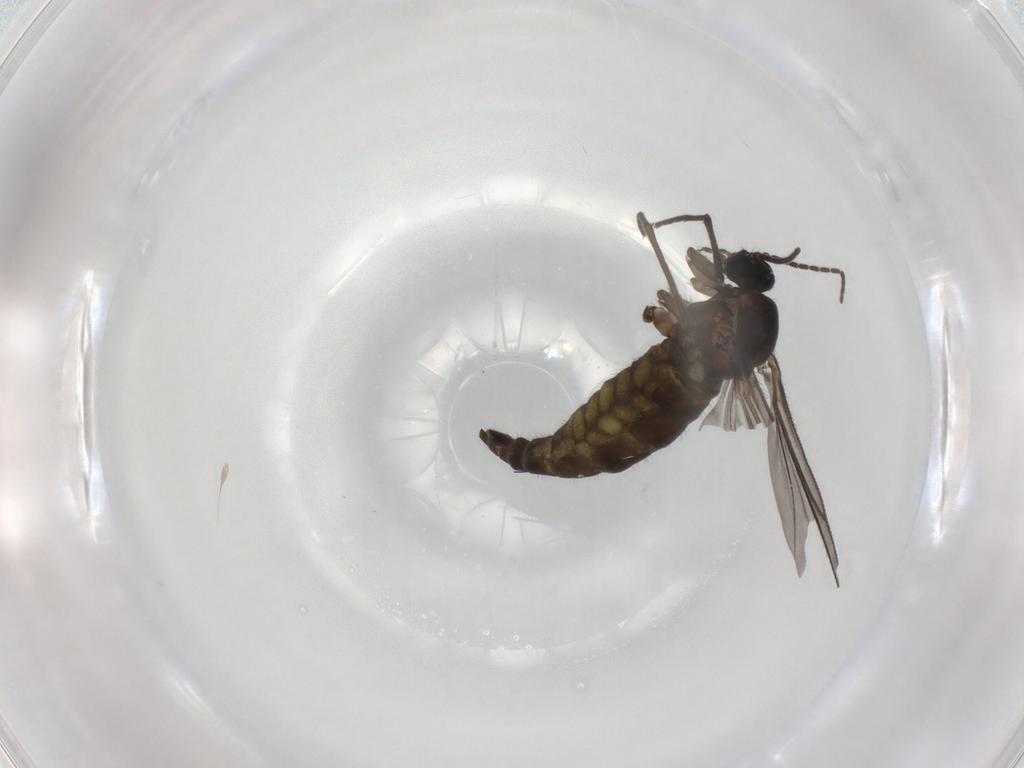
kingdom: Animalia
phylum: Arthropoda
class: Insecta
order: Diptera
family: Sciaridae
